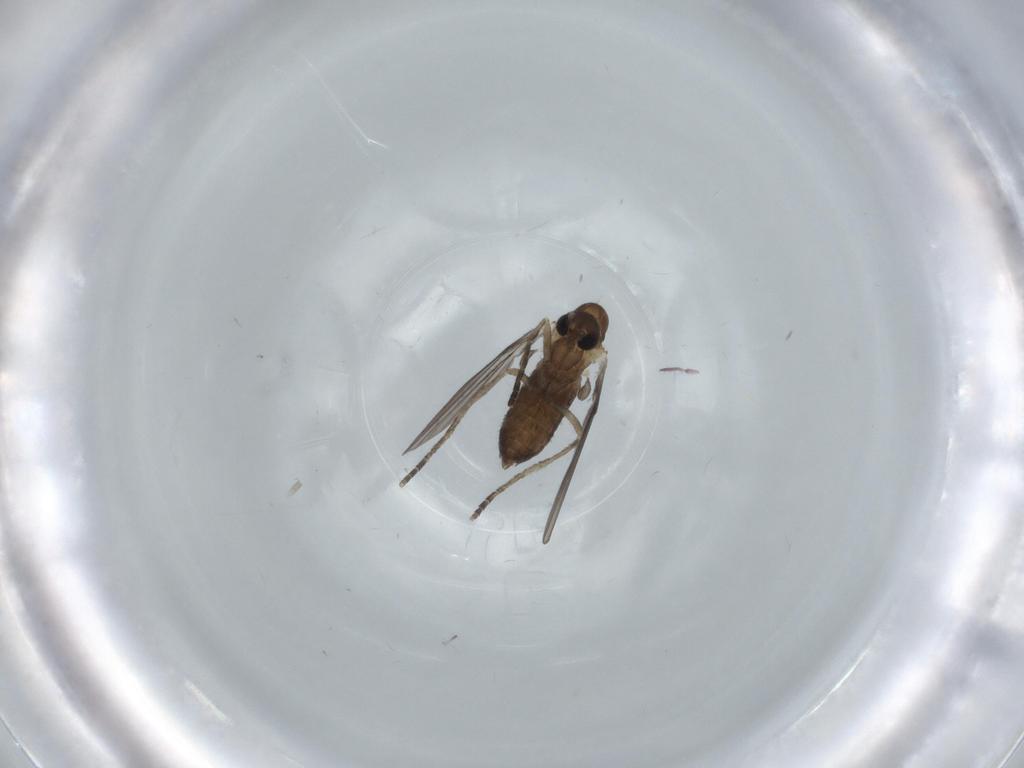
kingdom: Animalia
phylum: Arthropoda
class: Insecta
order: Diptera
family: Psychodidae
